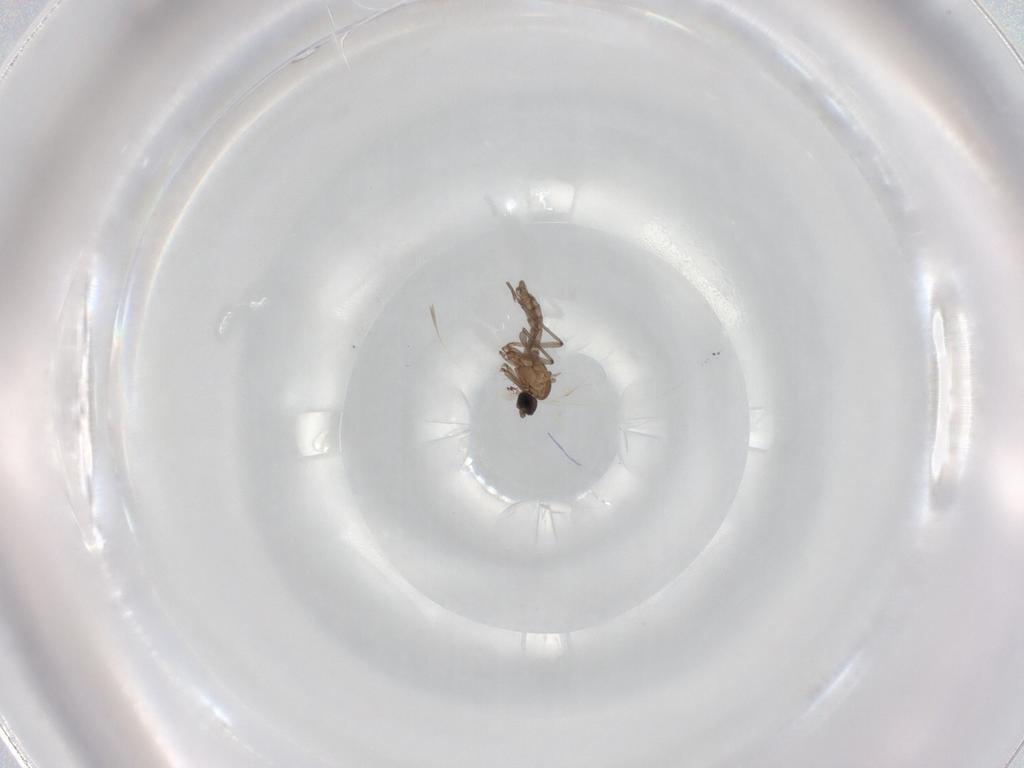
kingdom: Animalia
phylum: Arthropoda
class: Insecta
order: Diptera
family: Sciaridae
